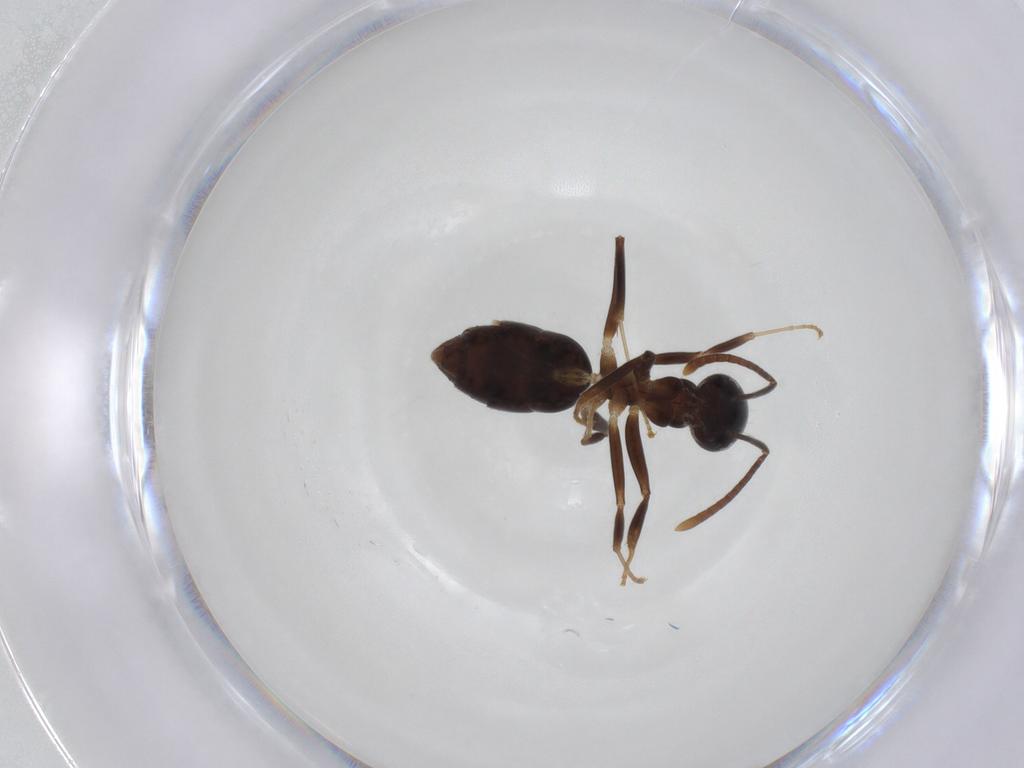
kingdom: Animalia
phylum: Arthropoda
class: Insecta
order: Hymenoptera
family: Formicidae
